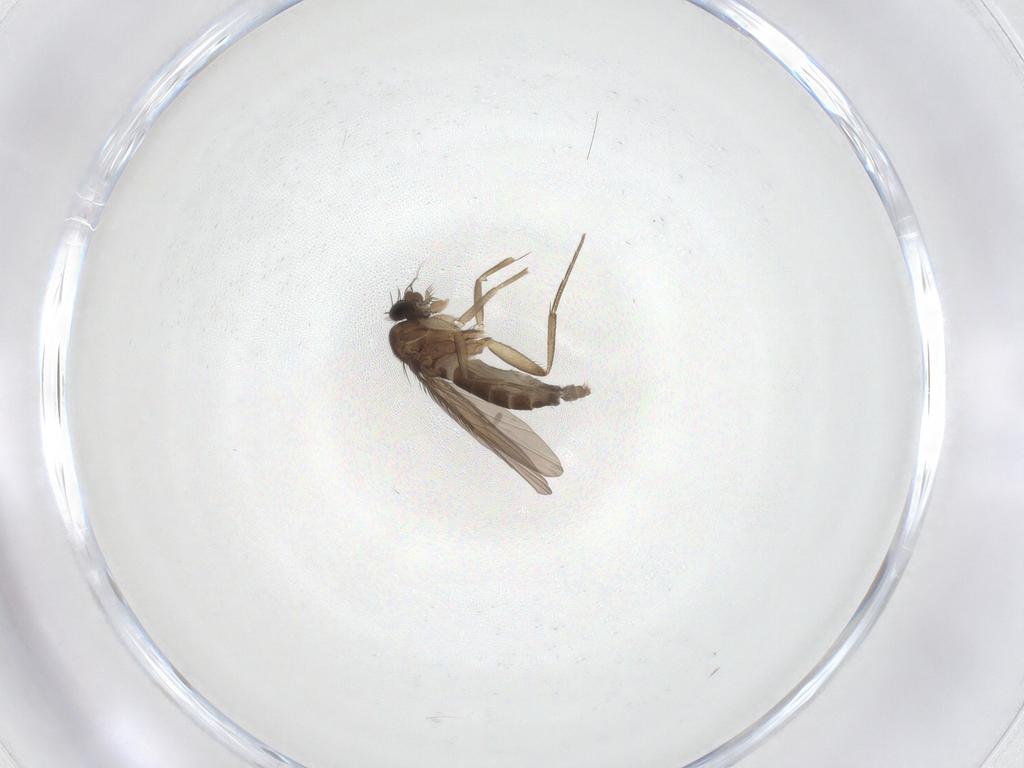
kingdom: Animalia
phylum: Arthropoda
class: Insecta
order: Diptera
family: Phoridae
